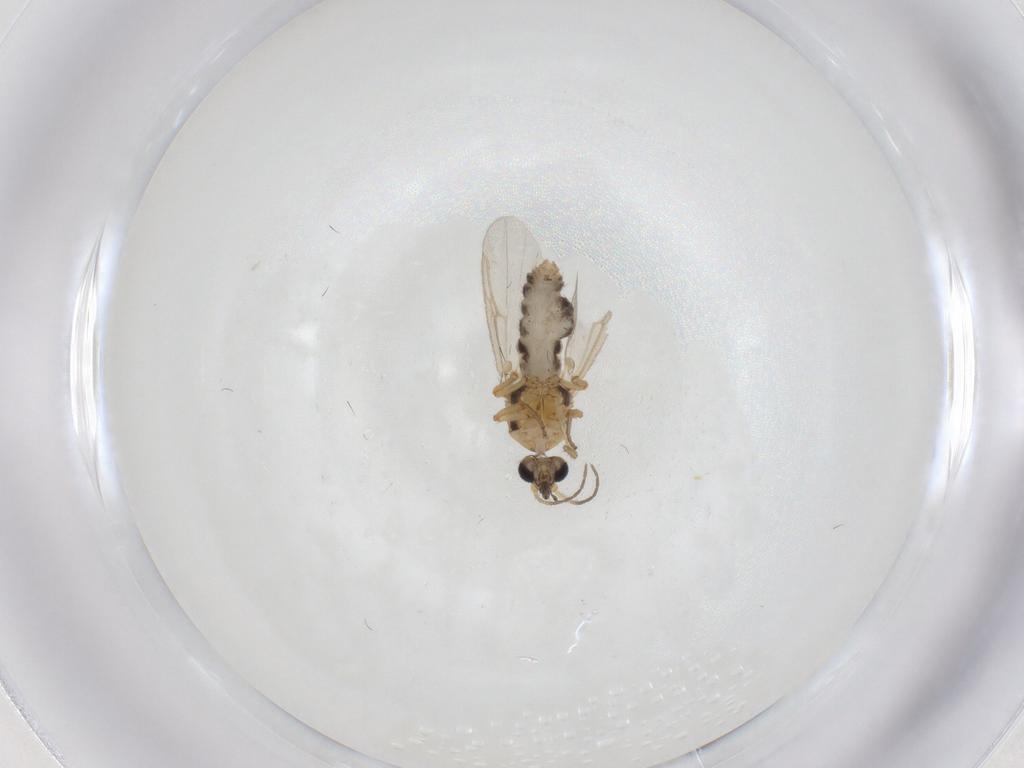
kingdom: Animalia
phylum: Arthropoda
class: Insecta
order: Diptera
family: Ceratopogonidae
